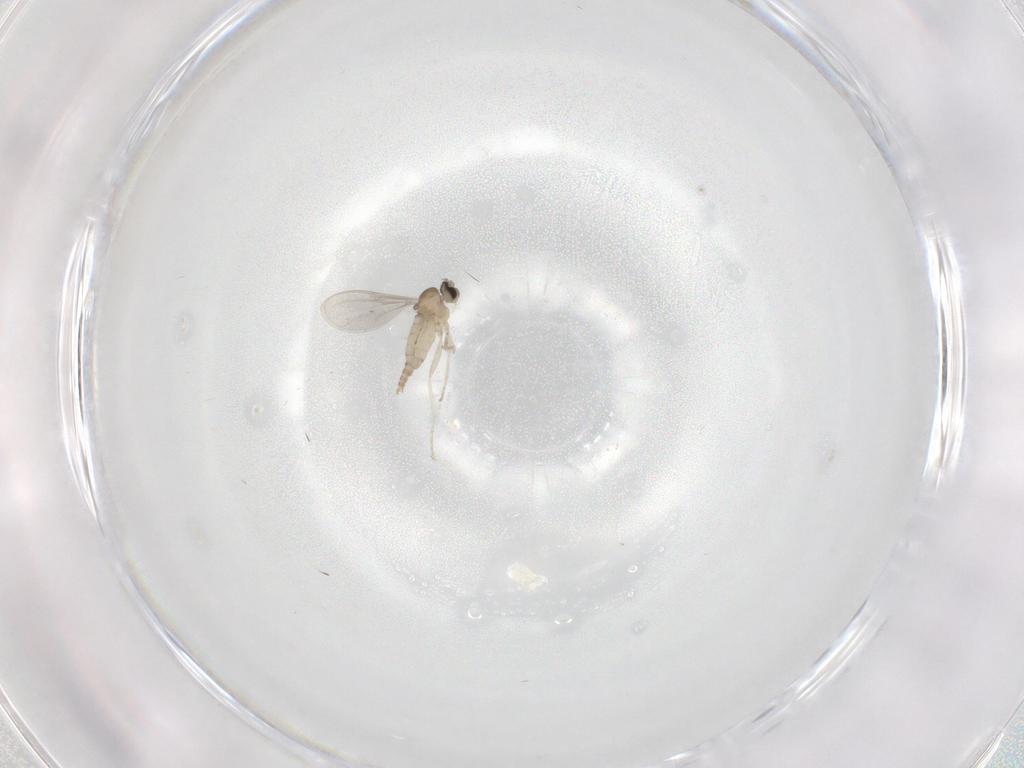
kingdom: Animalia
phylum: Arthropoda
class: Insecta
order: Diptera
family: Cecidomyiidae
